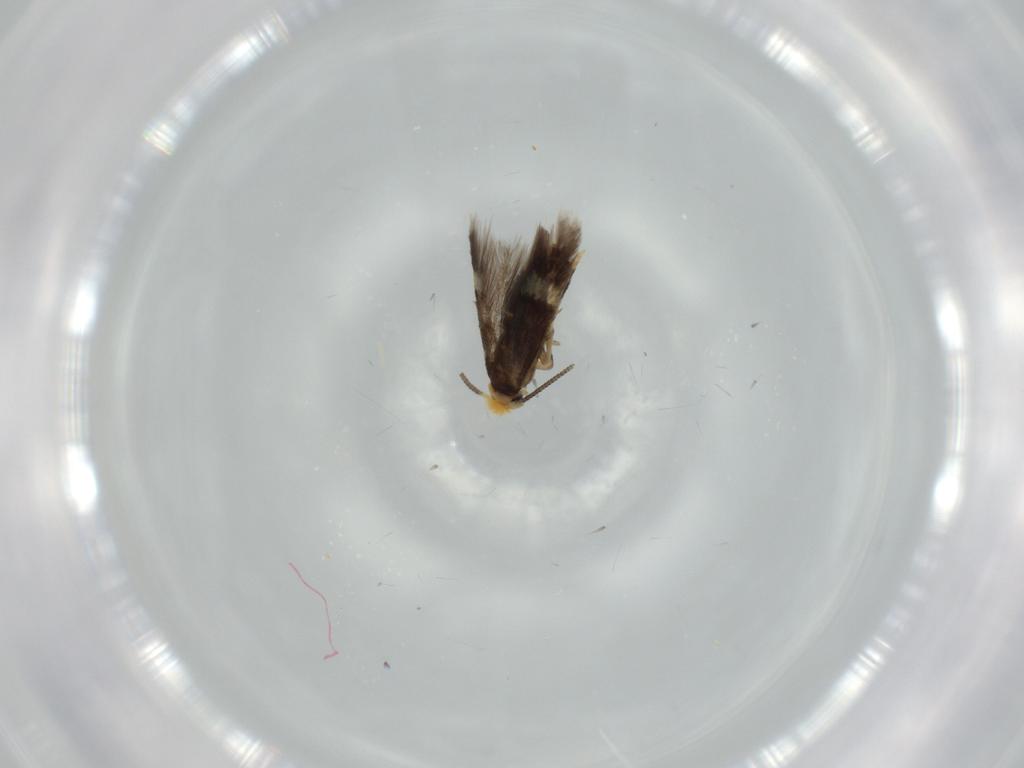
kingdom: Animalia
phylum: Arthropoda
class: Insecta
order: Lepidoptera
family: Nepticulidae
